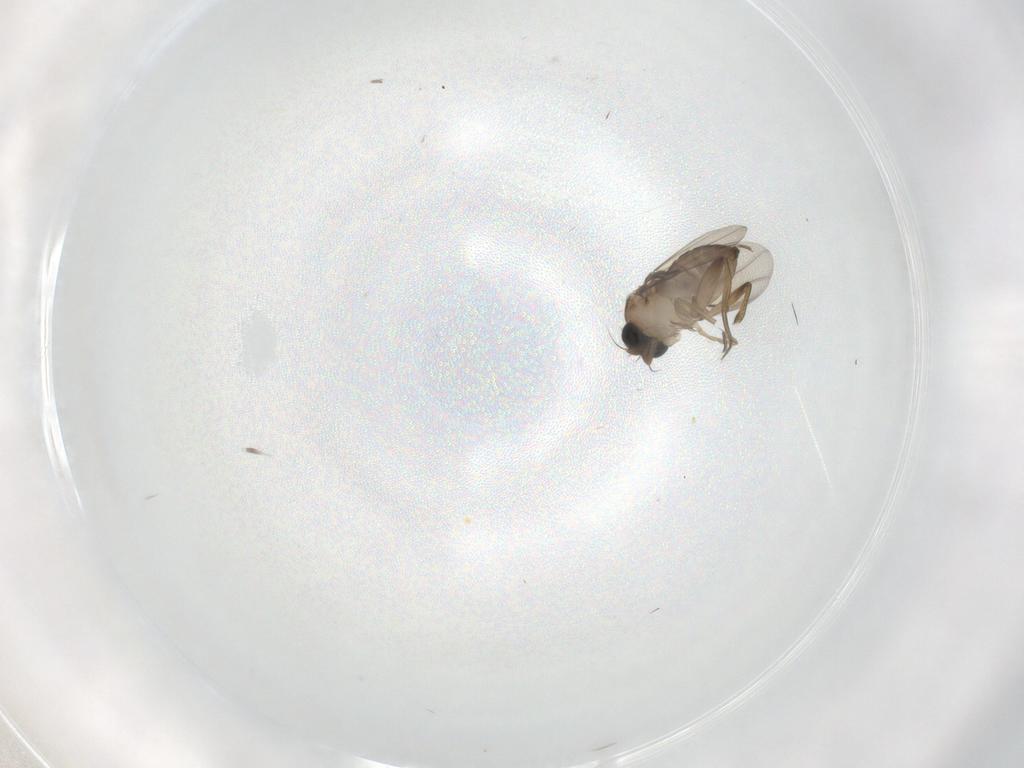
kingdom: Animalia
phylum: Arthropoda
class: Insecta
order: Diptera
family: Phoridae
